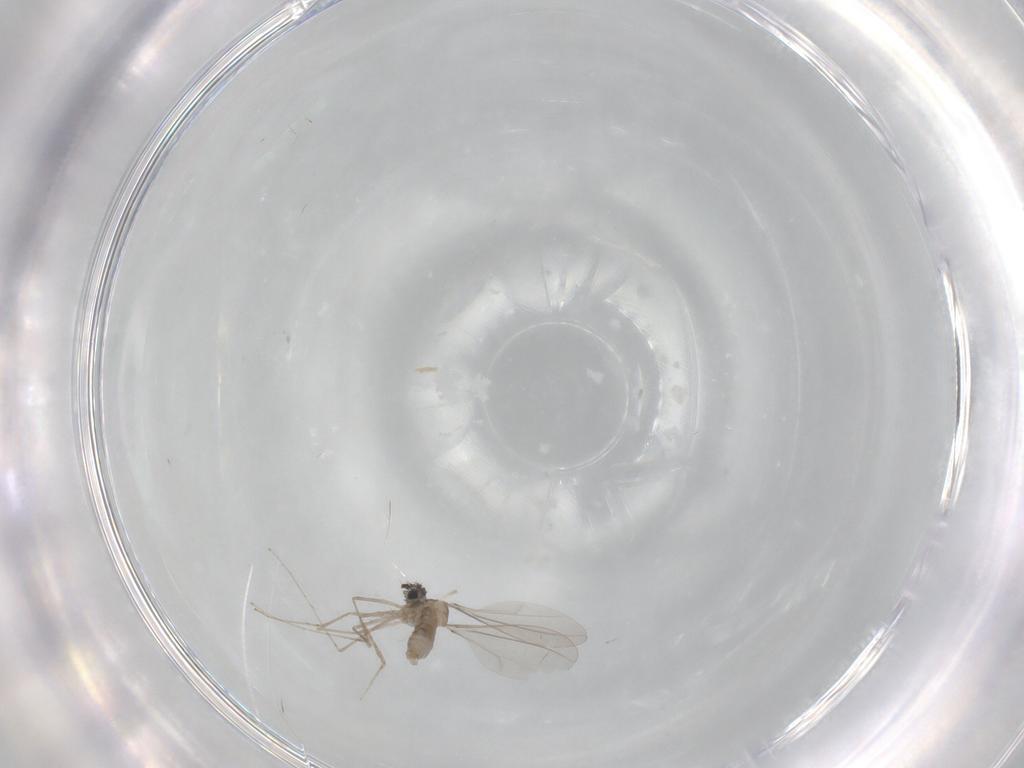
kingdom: Animalia
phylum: Arthropoda
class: Insecta
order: Diptera
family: Cecidomyiidae
